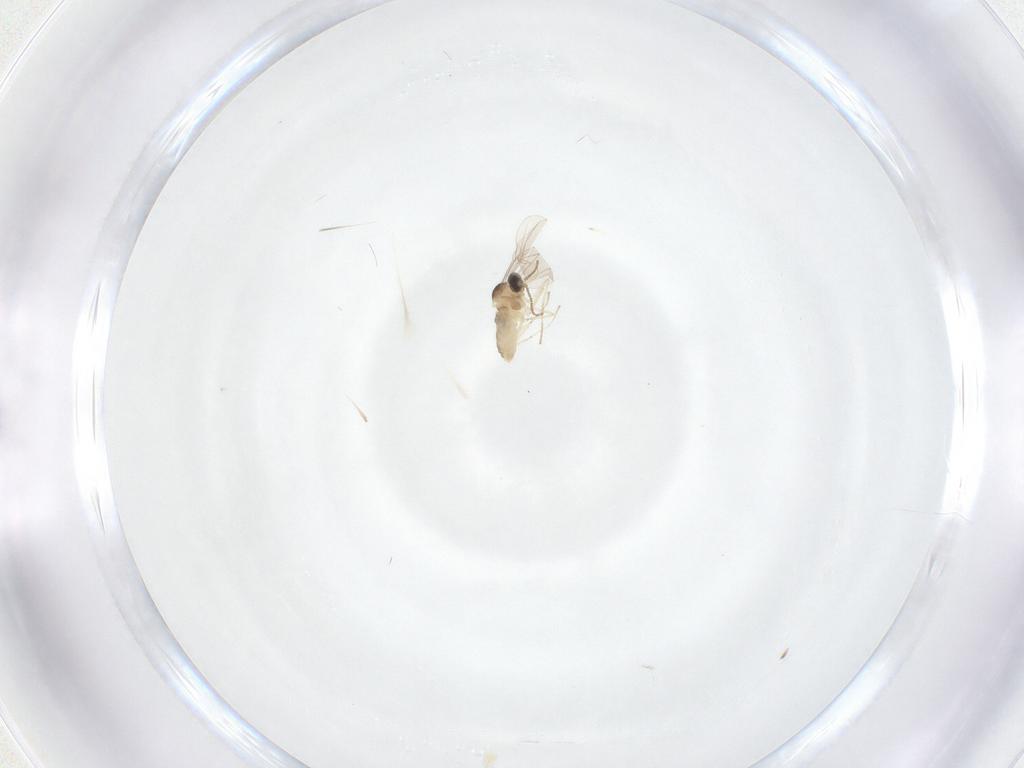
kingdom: Animalia
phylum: Arthropoda
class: Insecta
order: Diptera
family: Cecidomyiidae
